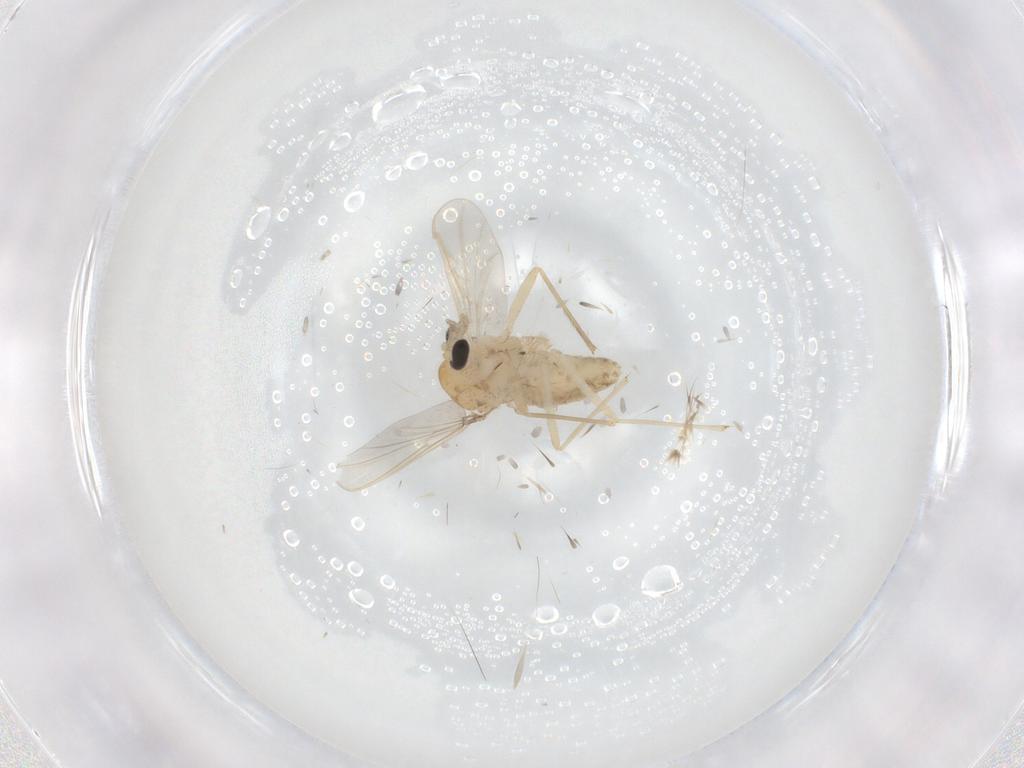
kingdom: Animalia
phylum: Arthropoda
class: Insecta
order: Diptera
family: Chironomidae
